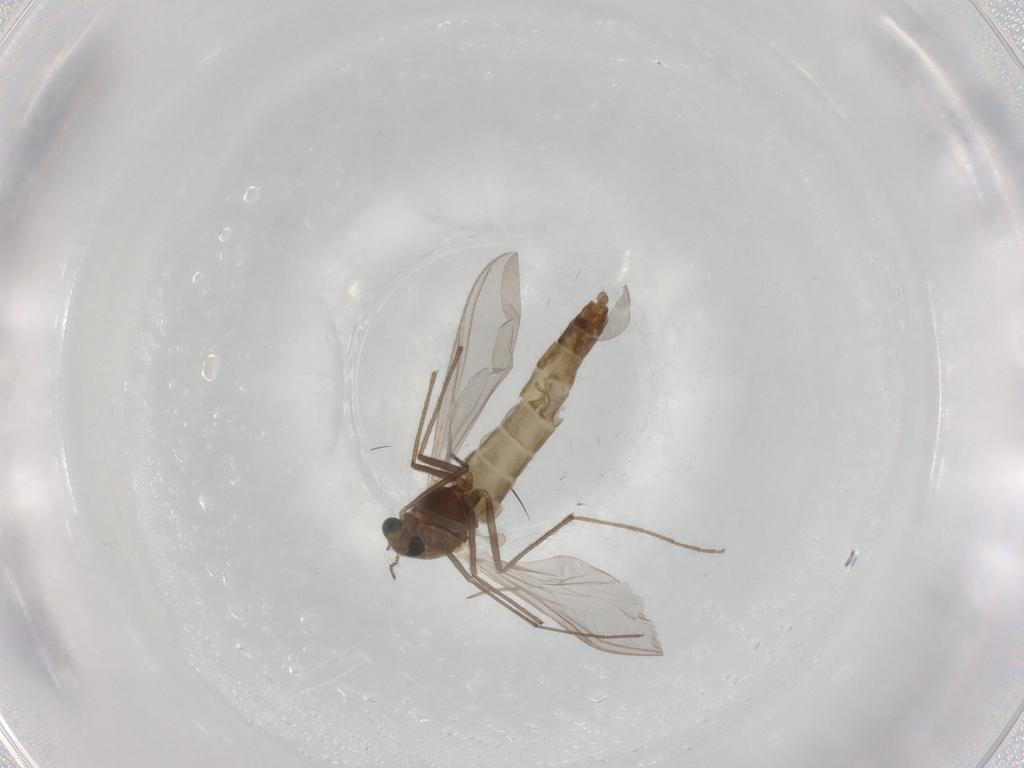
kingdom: Animalia
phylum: Arthropoda
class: Insecta
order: Diptera
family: Chironomidae
